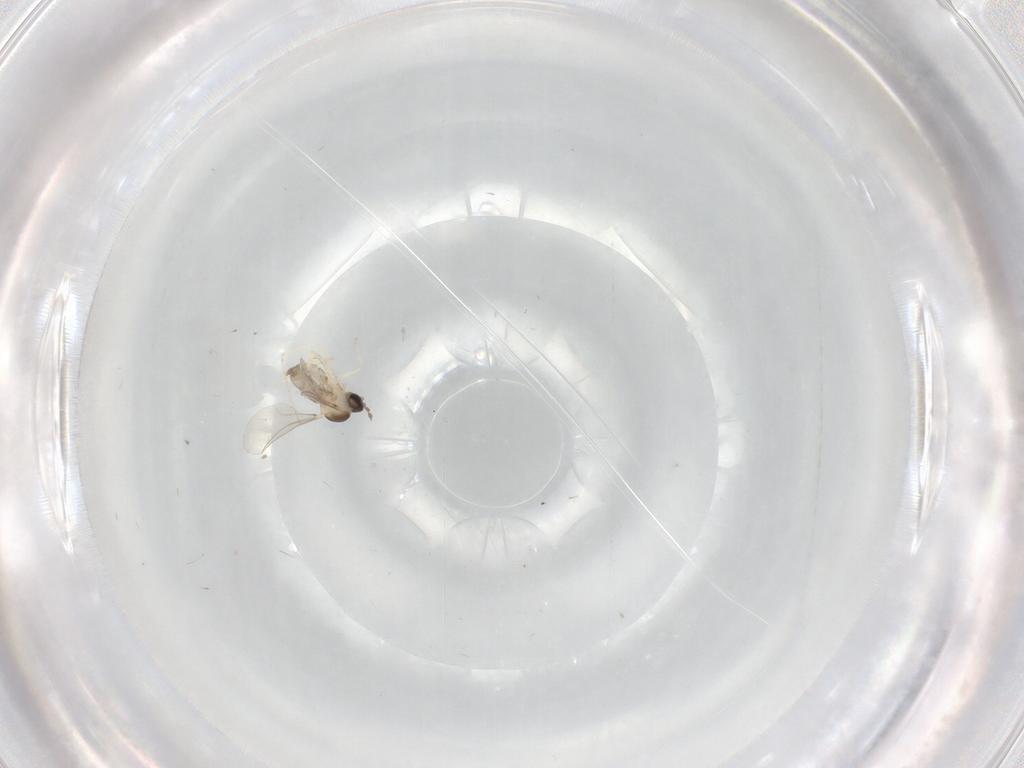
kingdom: Animalia
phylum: Arthropoda
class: Insecta
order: Diptera
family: Cecidomyiidae
